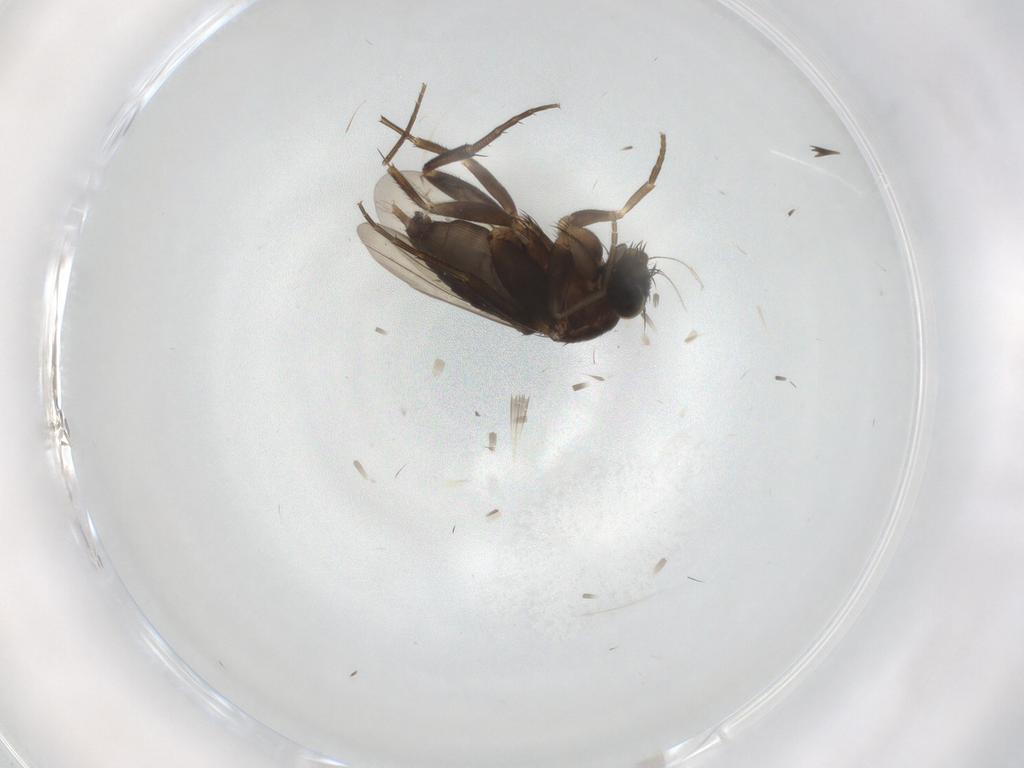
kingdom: Animalia
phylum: Arthropoda
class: Insecta
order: Diptera
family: Phoridae
